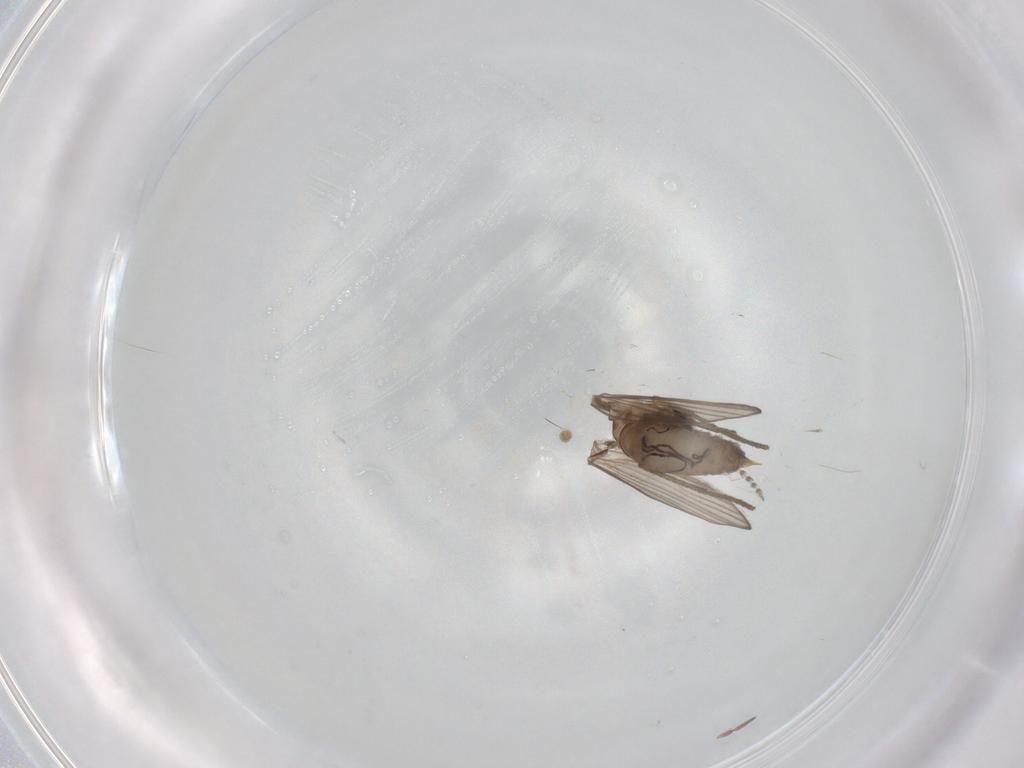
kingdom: Animalia
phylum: Arthropoda
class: Insecta
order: Diptera
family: Psychodidae
